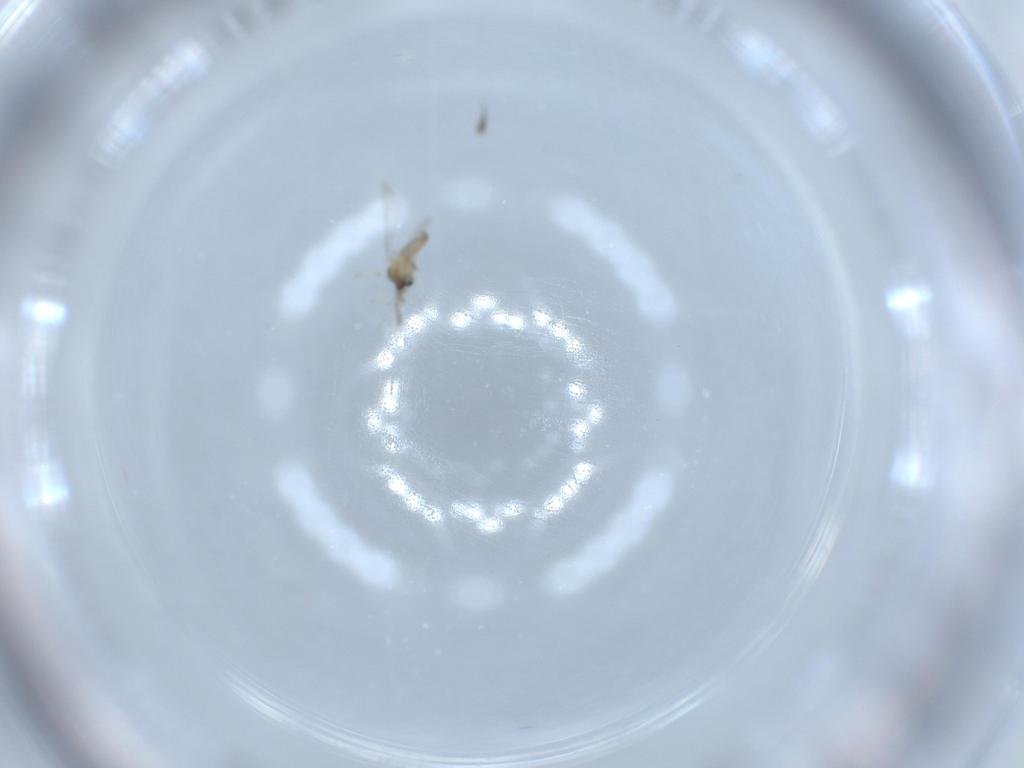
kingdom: Animalia
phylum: Arthropoda
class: Insecta
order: Diptera
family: Cecidomyiidae
